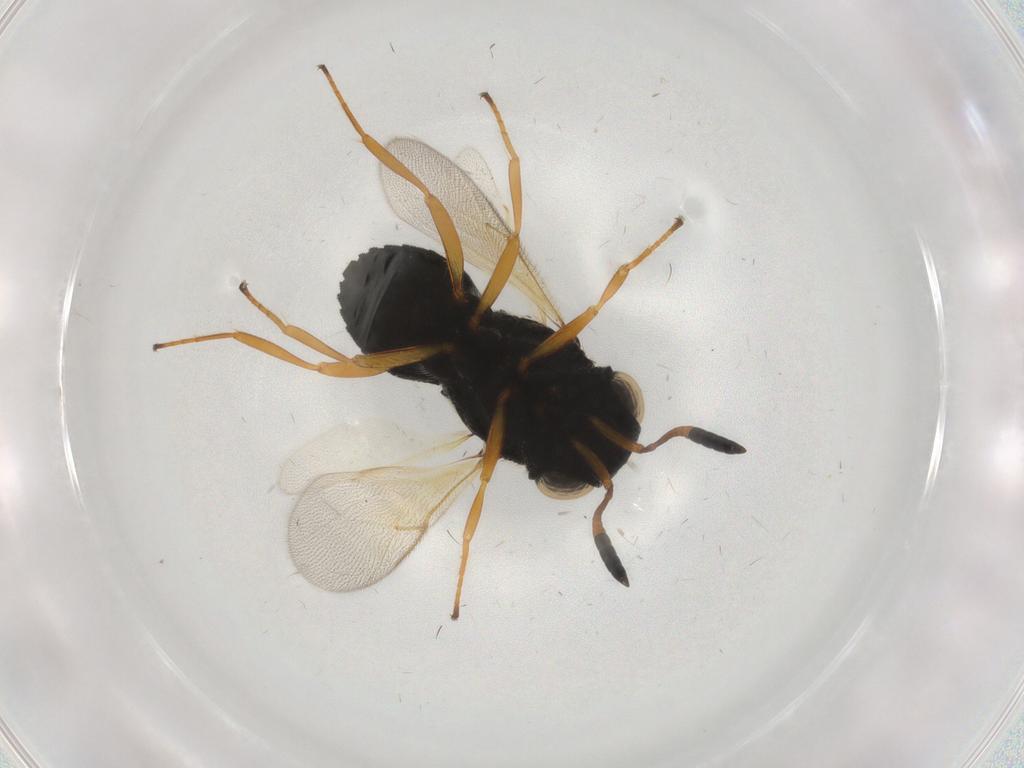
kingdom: Animalia
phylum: Arthropoda
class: Insecta
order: Hymenoptera
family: Scelionidae
